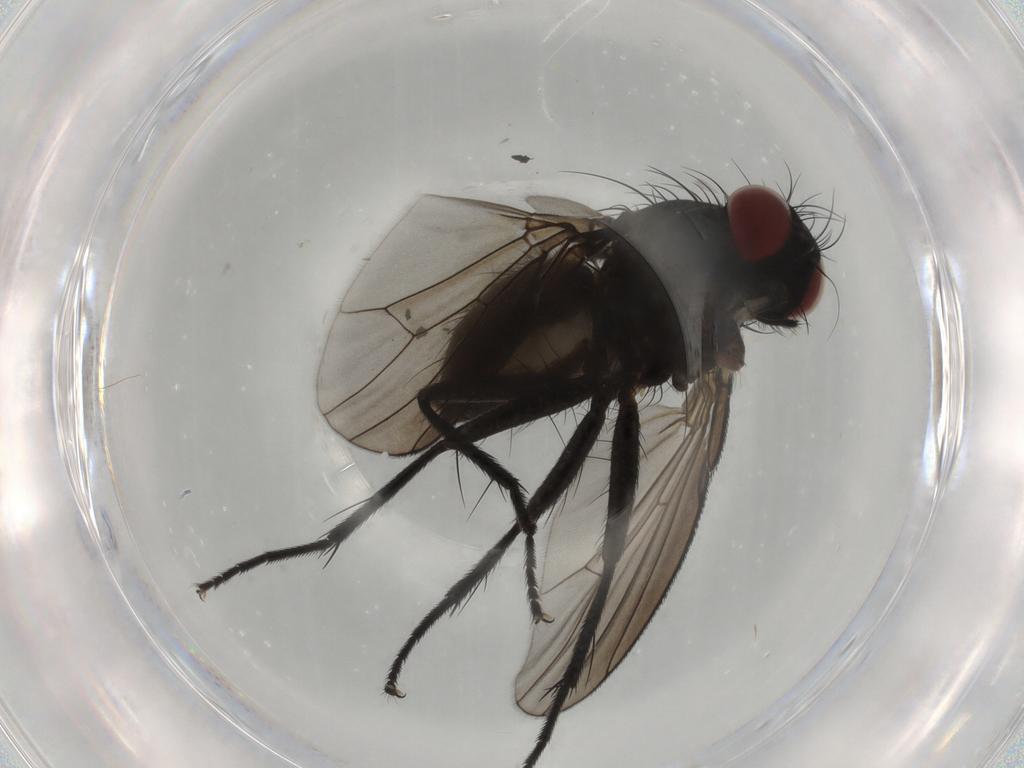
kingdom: Animalia
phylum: Arthropoda
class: Insecta
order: Diptera
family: Muscidae
